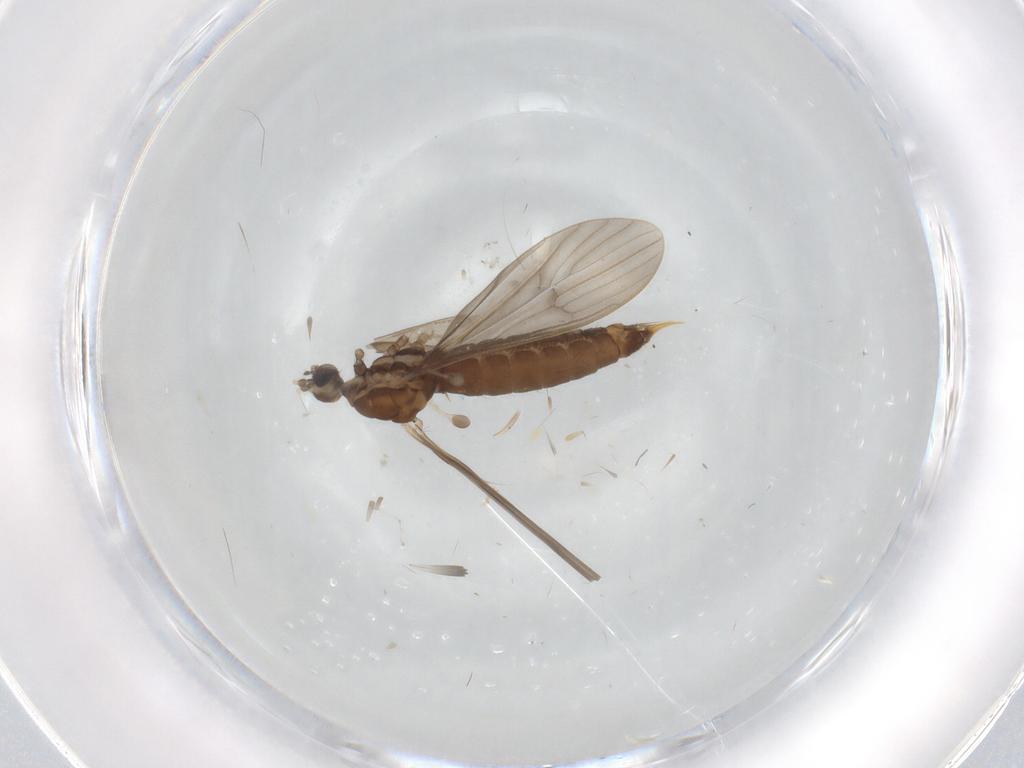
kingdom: Animalia
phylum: Arthropoda
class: Insecta
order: Diptera
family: Limoniidae
